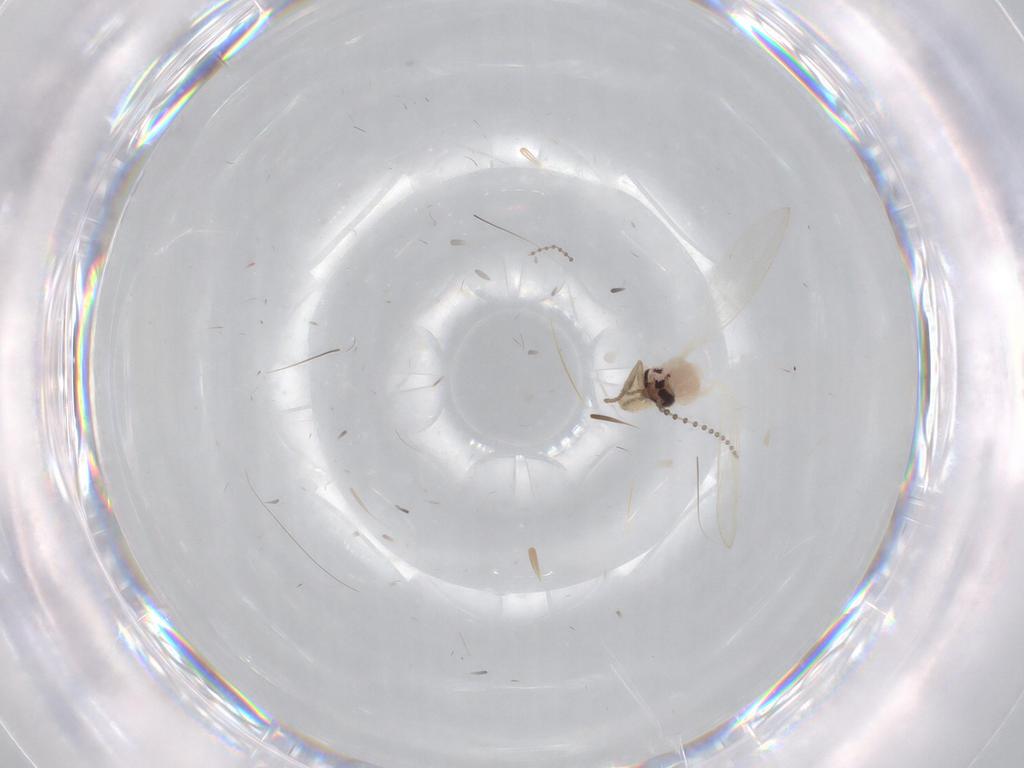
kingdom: Animalia
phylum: Arthropoda
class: Insecta
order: Diptera
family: Psychodidae
